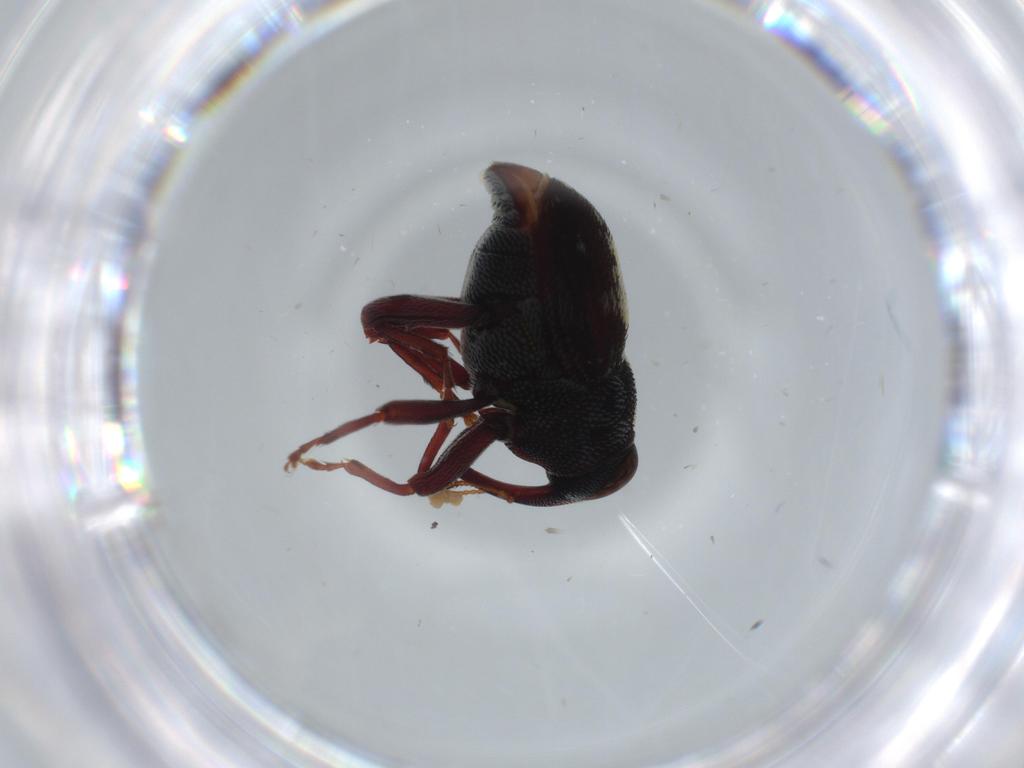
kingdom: Animalia
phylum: Arthropoda
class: Insecta
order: Coleoptera
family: Curculionidae
